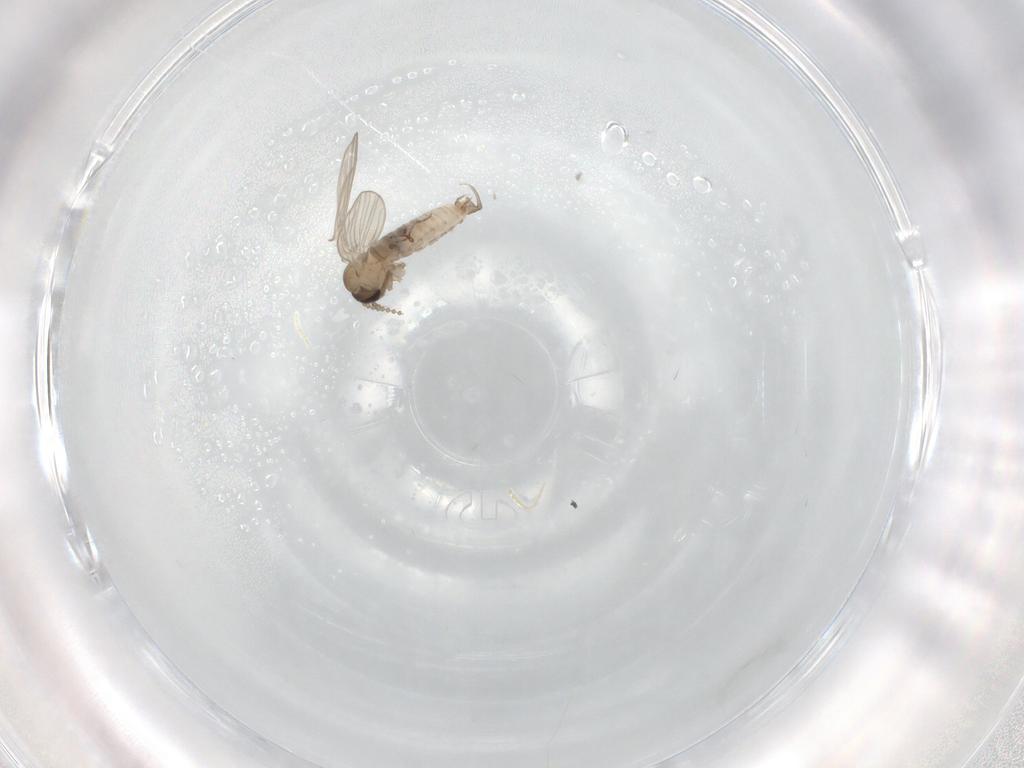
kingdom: Animalia
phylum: Arthropoda
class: Insecta
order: Diptera
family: Psychodidae
